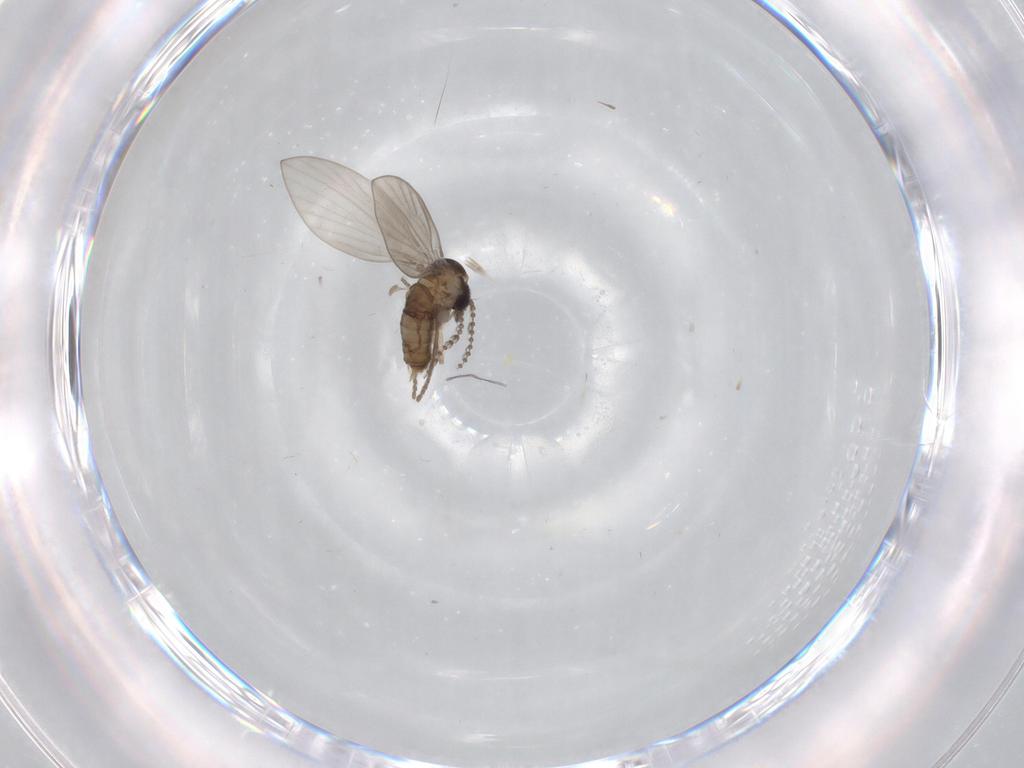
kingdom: Animalia
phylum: Arthropoda
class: Insecta
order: Diptera
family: Psychodidae
